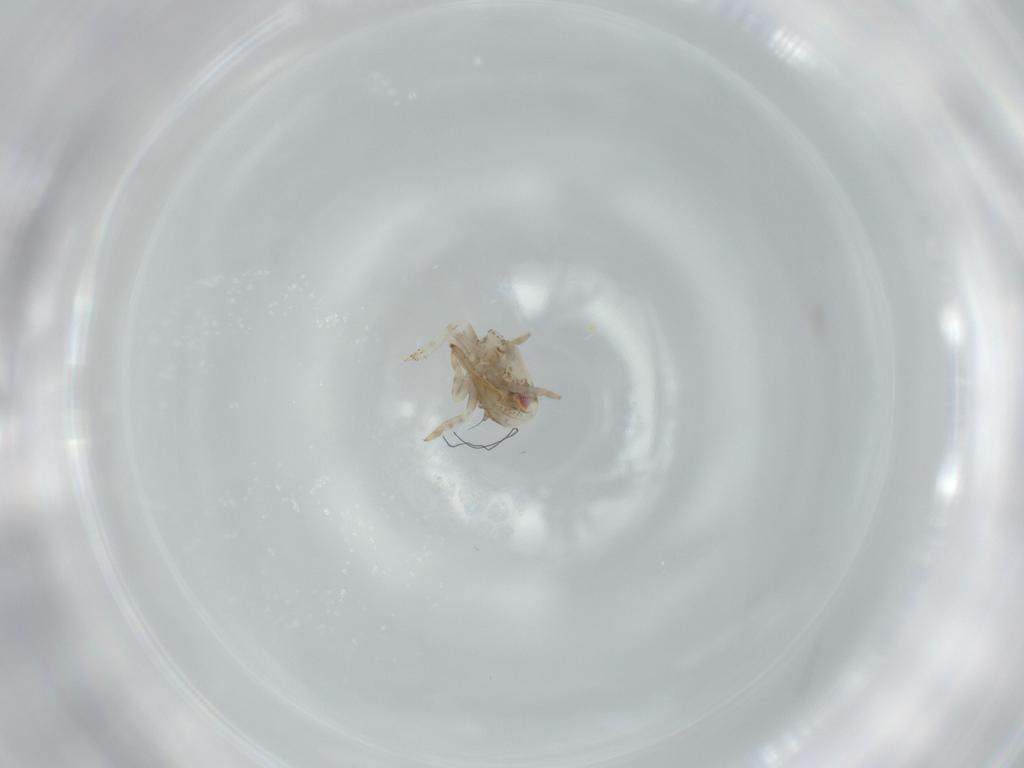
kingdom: Animalia
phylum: Arthropoda
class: Insecta
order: Hemiptera
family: Acanaloniidae
